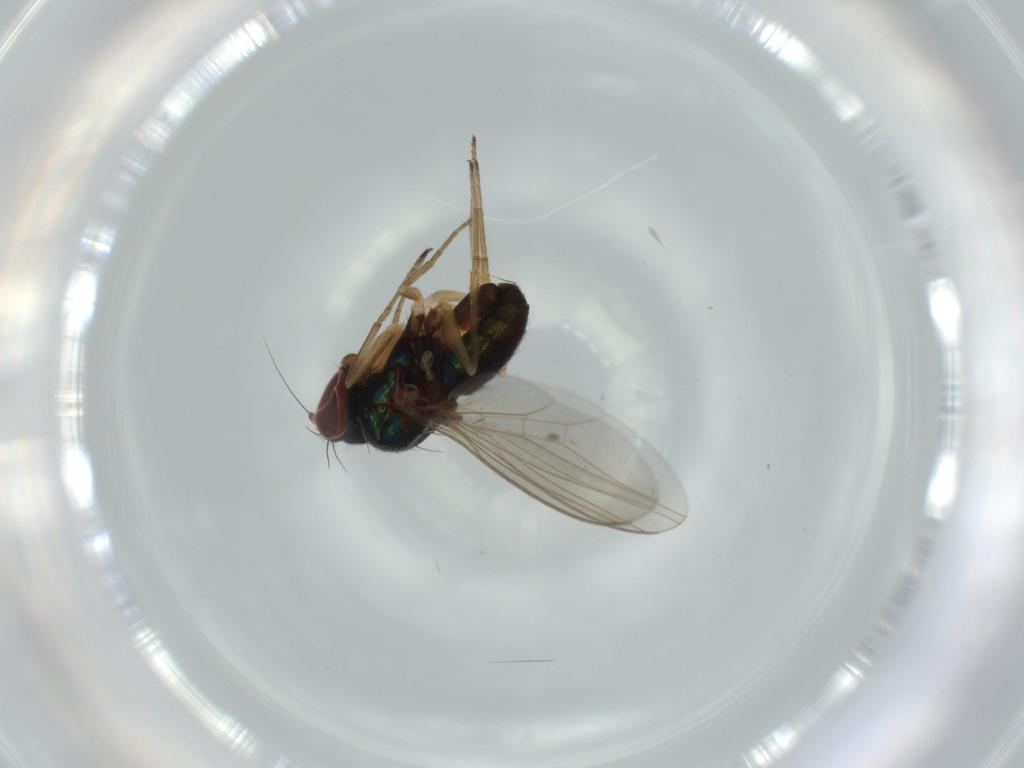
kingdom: Animalia
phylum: Arthropoda
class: Insecta
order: Diptera
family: Dolichopodidae
